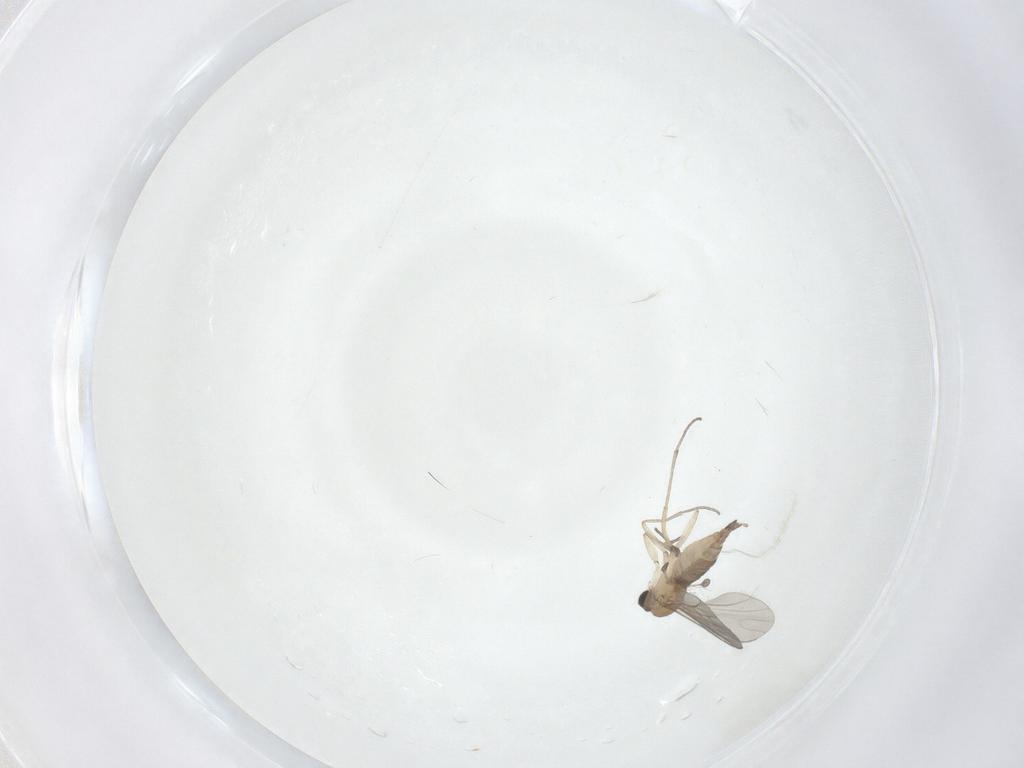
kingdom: Animalia
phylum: Arthropoda
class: Insecta
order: Diptera
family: Sciaridae
